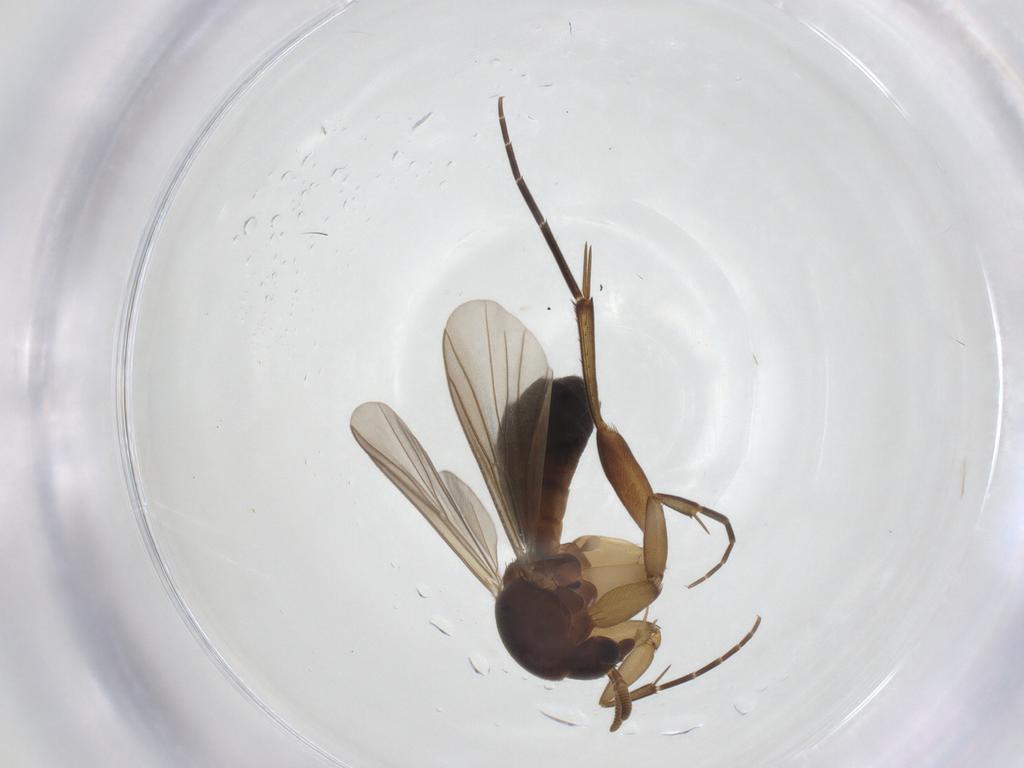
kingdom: Animalia
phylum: Arthropoda
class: Insecta
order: Diptera
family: Mycetophilidae
